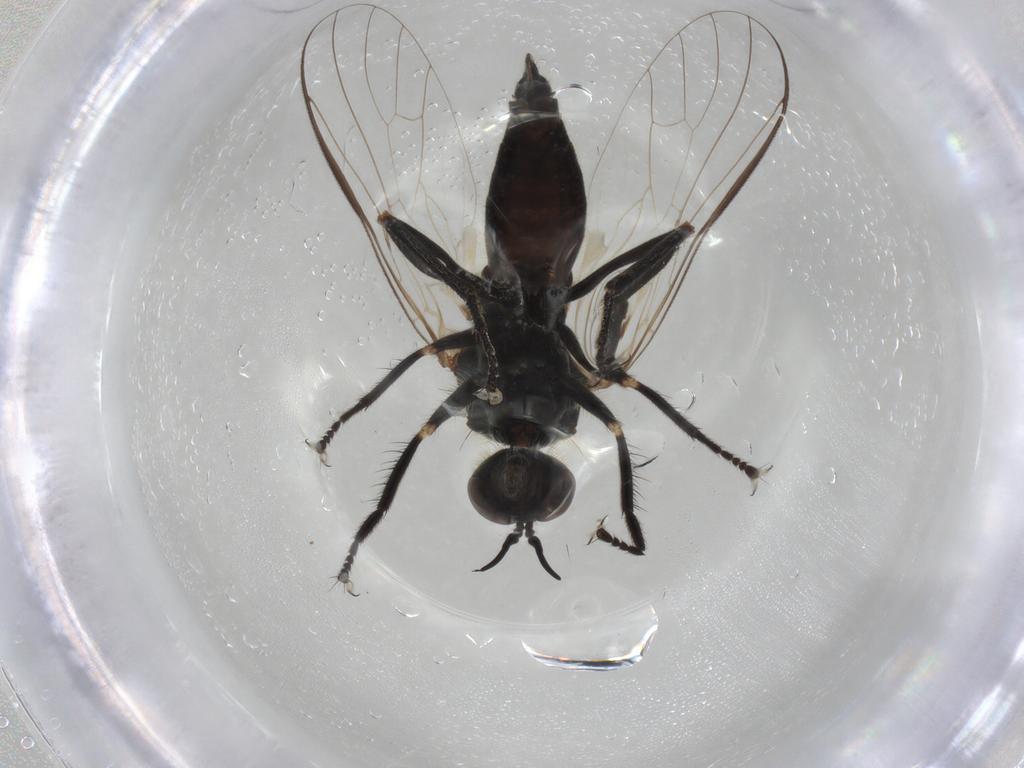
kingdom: Animalia
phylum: Arthropoda
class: Insecta
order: Diptera
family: Empididae
